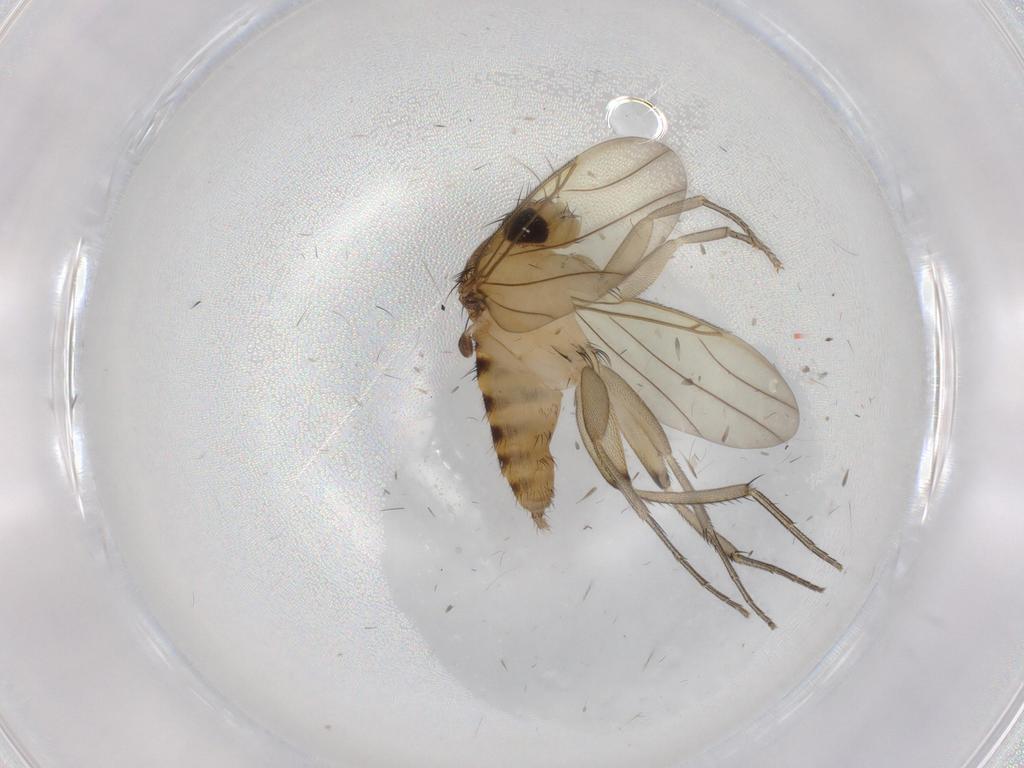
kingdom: Animalia
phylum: Arthropoda
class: Insecta
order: Diptera
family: Phoridae
